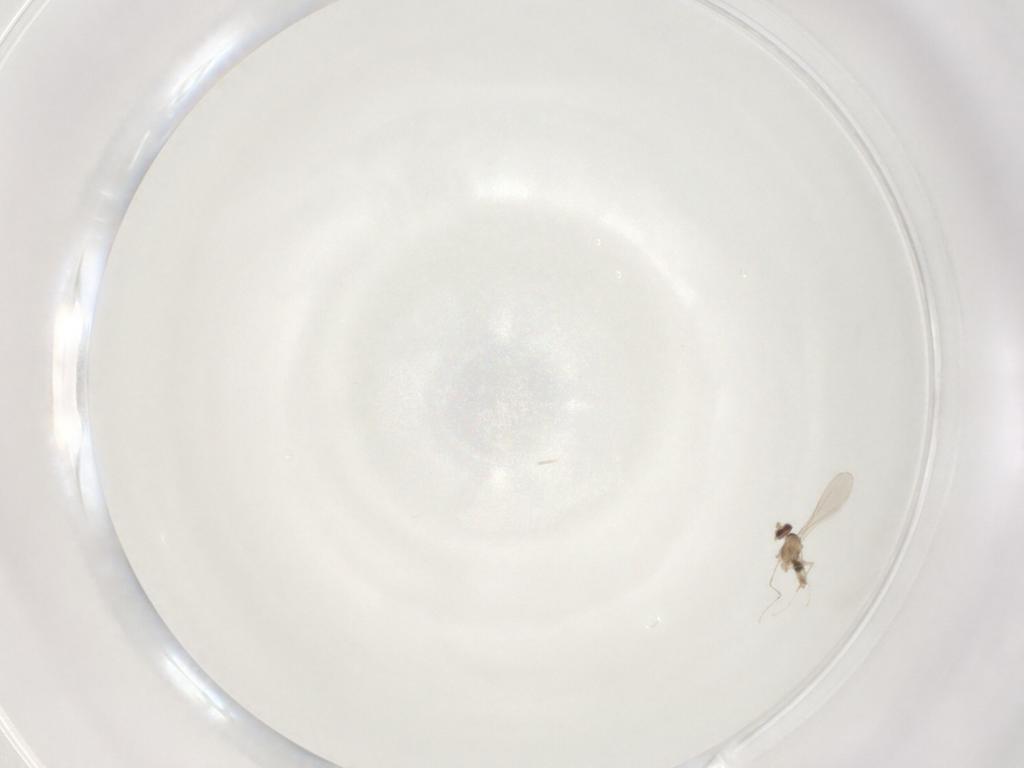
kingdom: Animalia
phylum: Arthropoda
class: Insecta
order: Diptera
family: Cecidomyiidae
